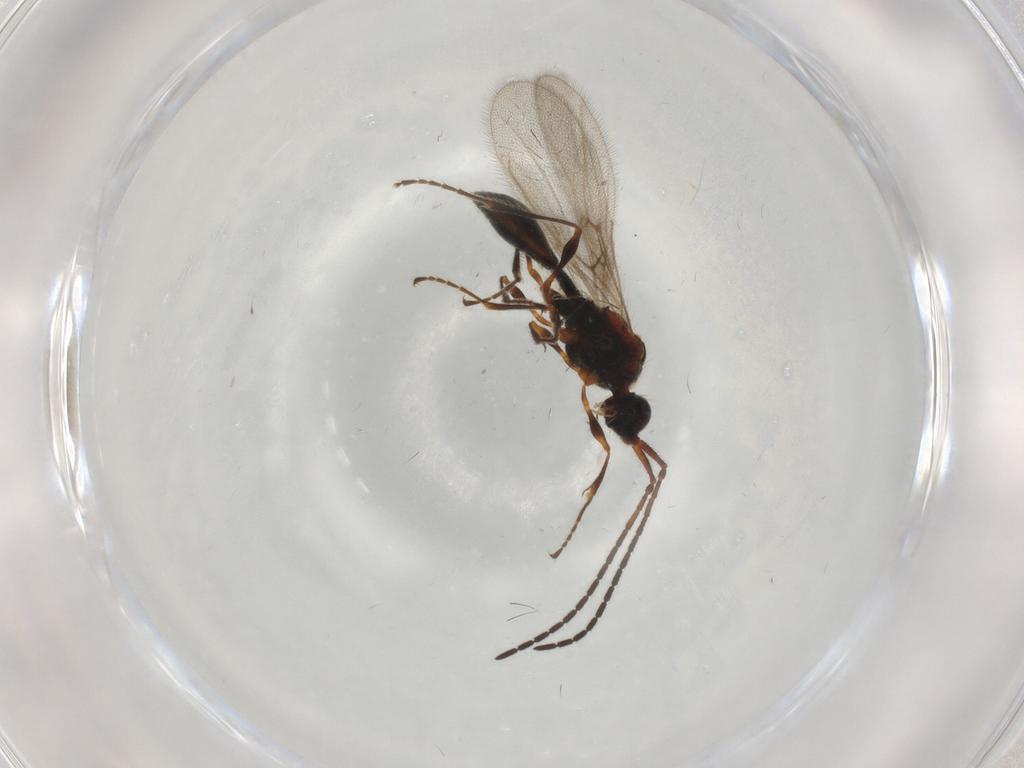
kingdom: Animalia
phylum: Arthropoda
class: Insecta
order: Hymenoptera
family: Diapriidae
